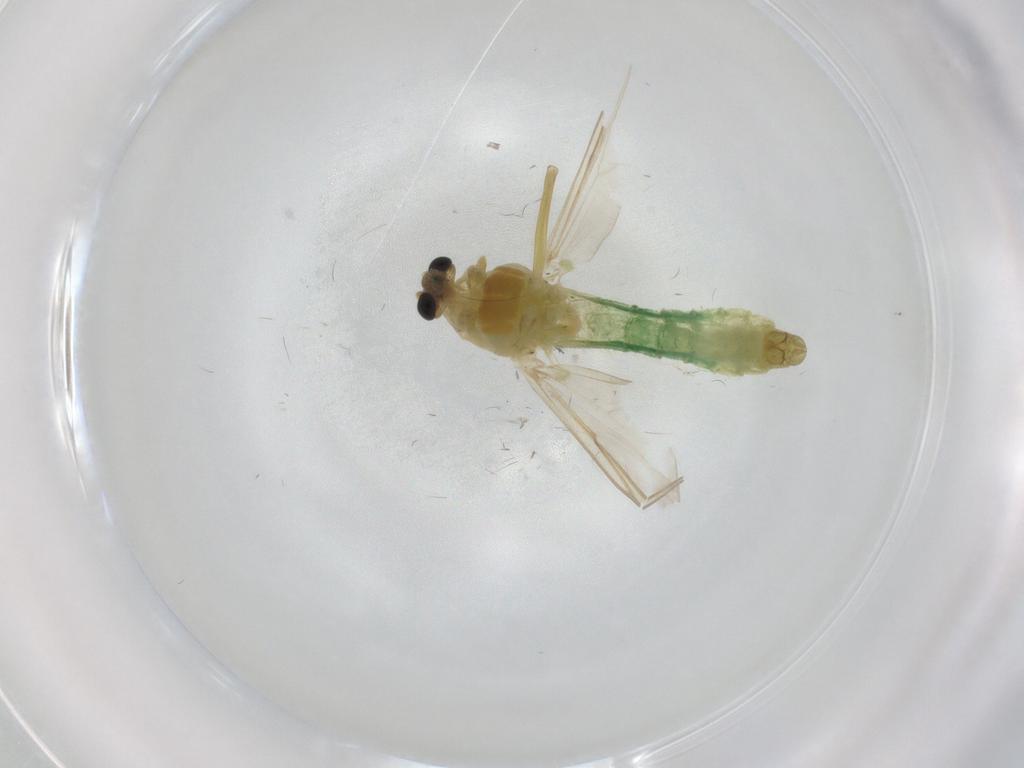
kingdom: Animalia
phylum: Arthropoda
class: Insecta
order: Diptera
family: Chironomidae
